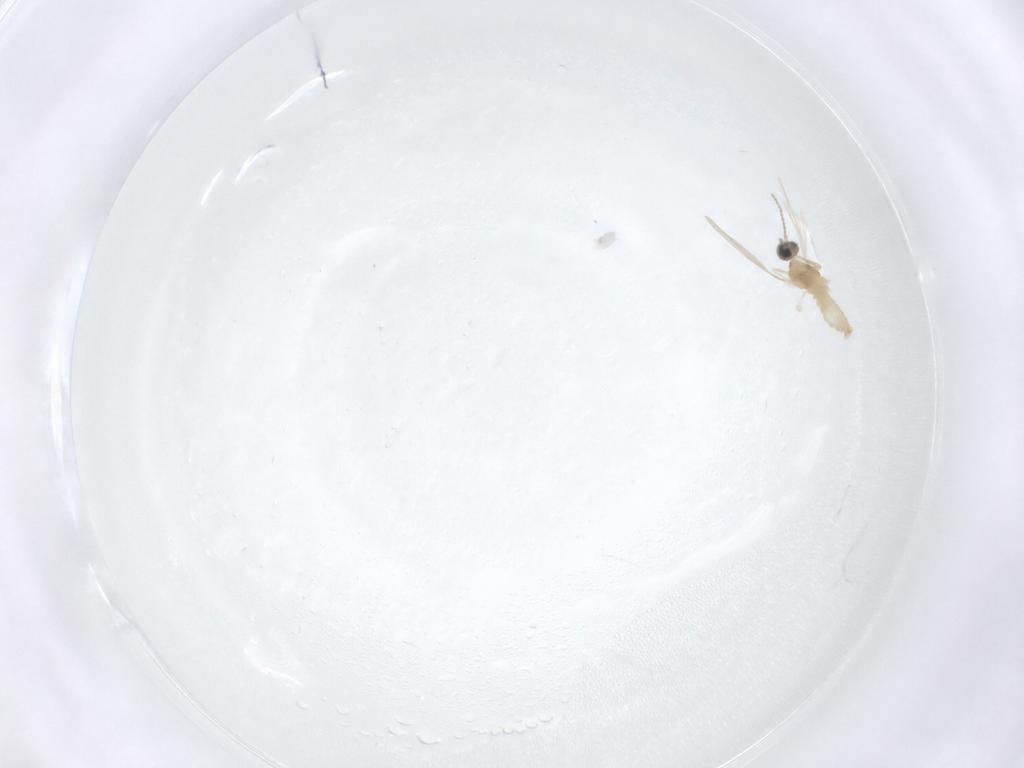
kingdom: Animalia
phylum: Arthropoda
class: Insecta
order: Diptera
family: Cecidomyiidae
